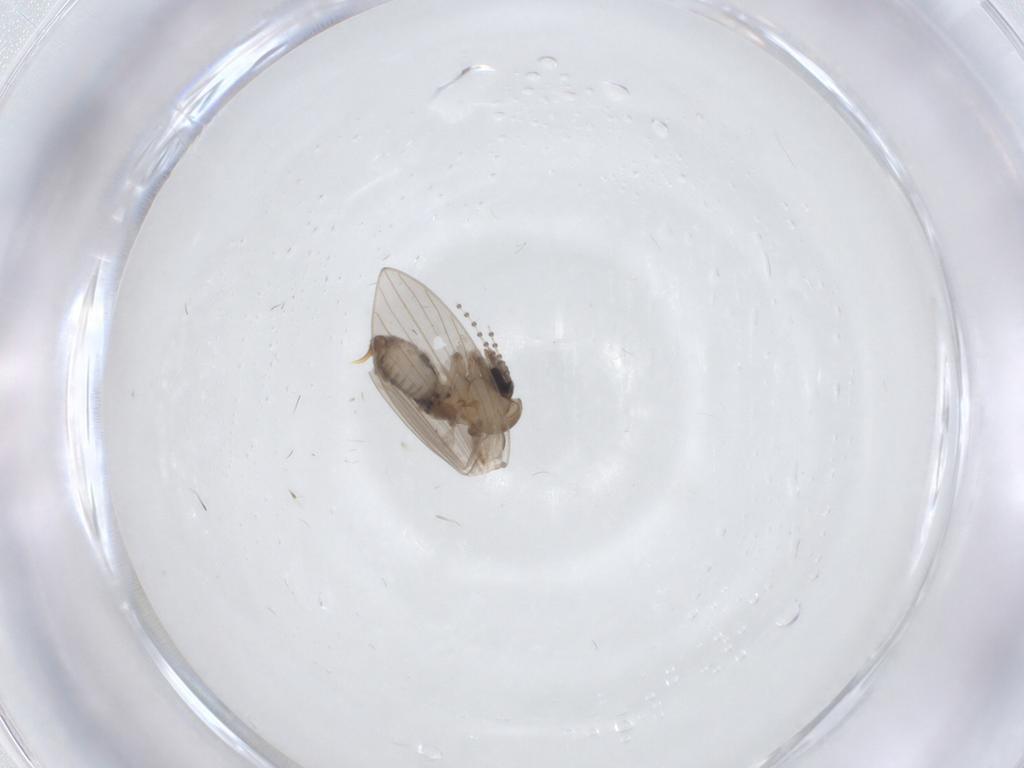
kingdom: Animalia
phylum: Arthropoda
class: Insecta
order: Diptera
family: Psychodidae
